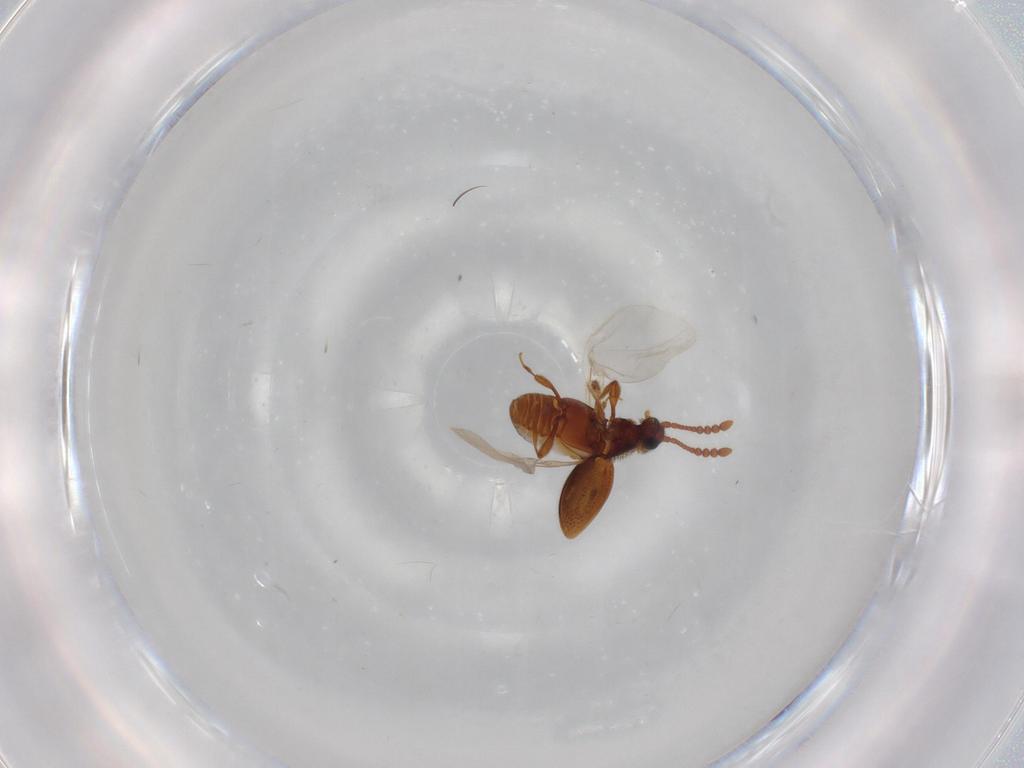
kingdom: Animalia
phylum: Arthropoda
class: Insecta
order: Coleoptera
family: Staphylinidae
